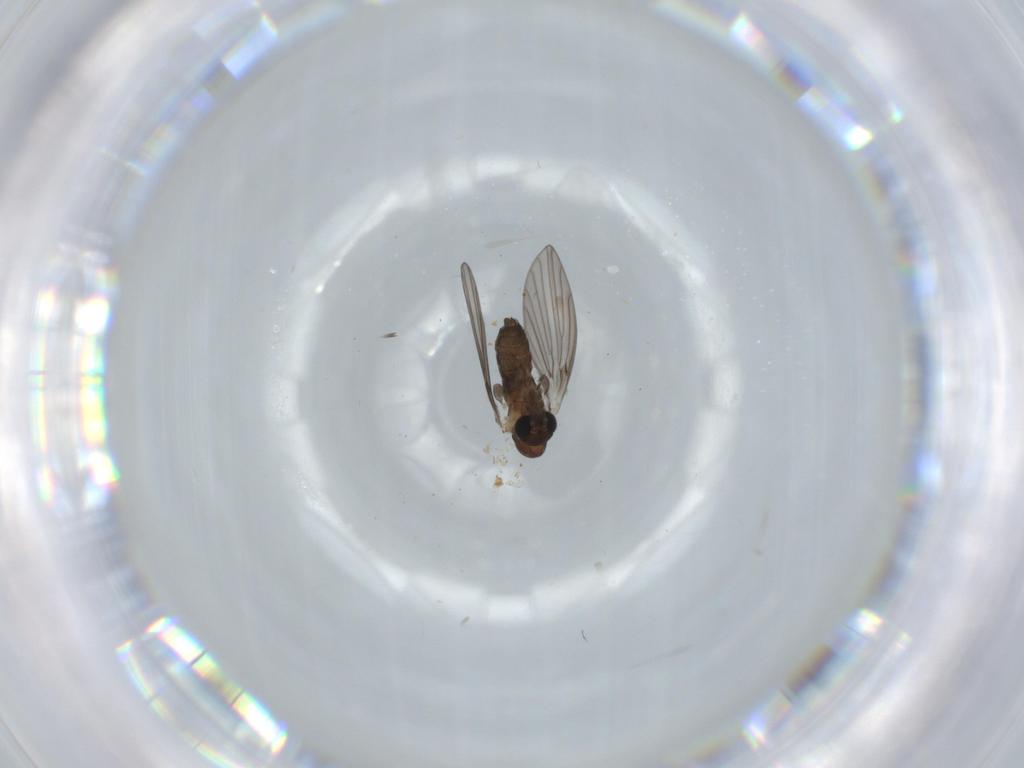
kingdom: Animalia
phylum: Arthropoda
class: Insecta
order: Diptera
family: Psychodidae
